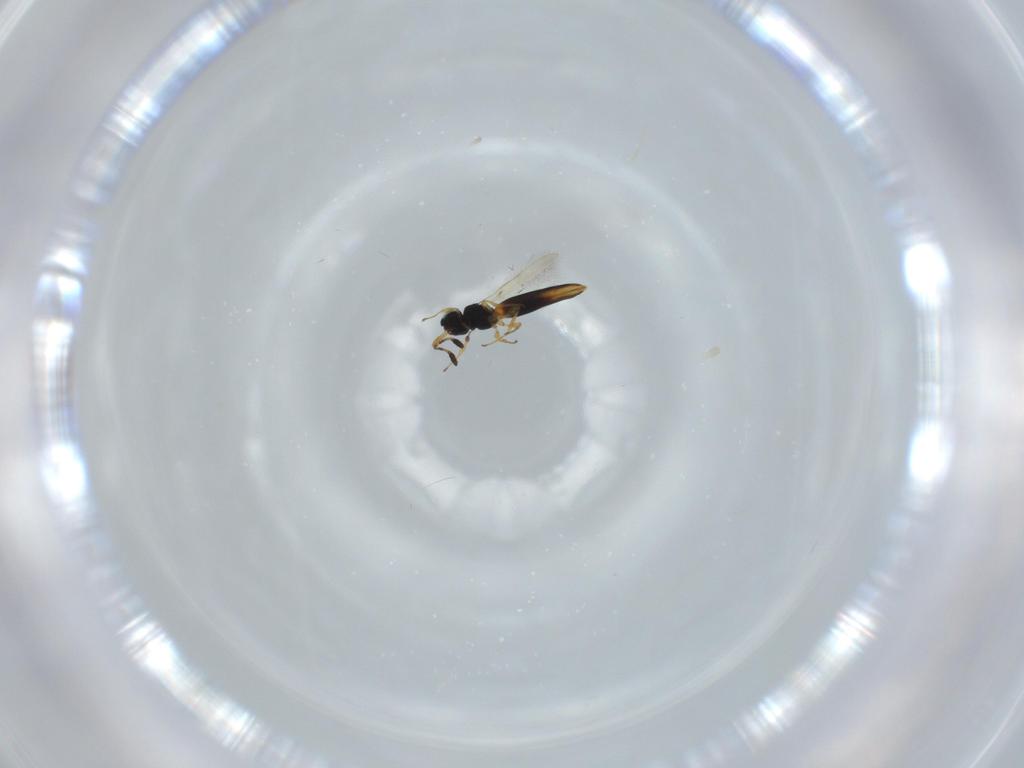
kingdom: Animalia
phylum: Arthropoda
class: Insecta
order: Hymenoptera
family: Scelionidae
